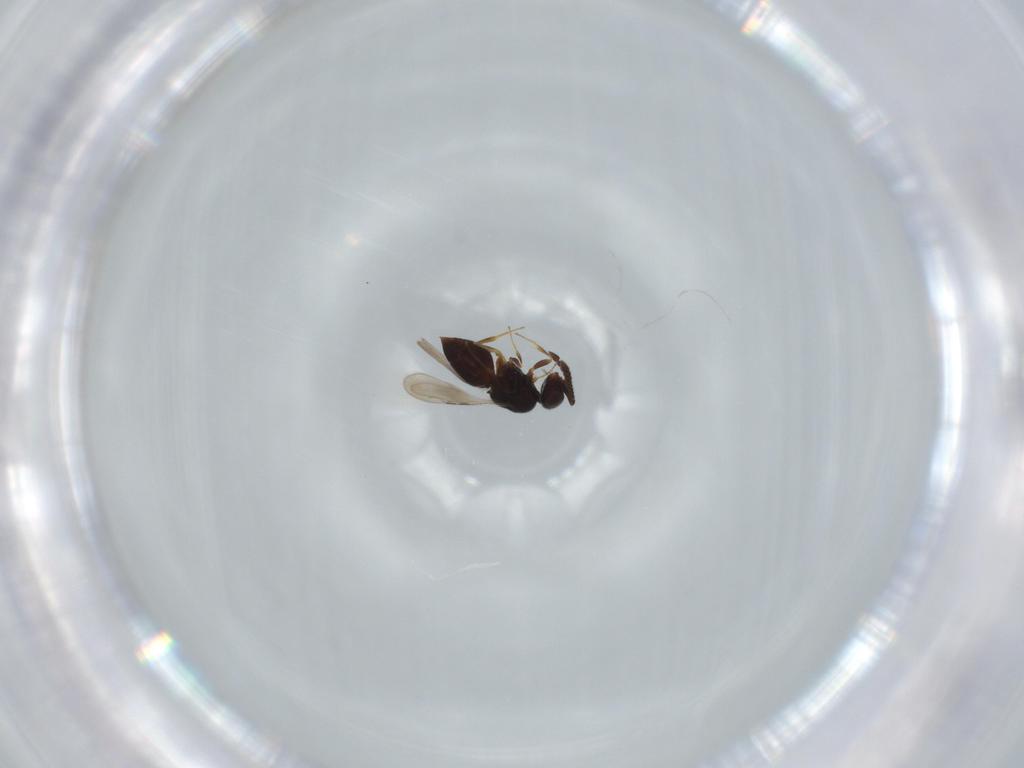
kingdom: Animalia
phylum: Arthropoda
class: Insecta
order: Hymenoptera
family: Ceraphronidae
